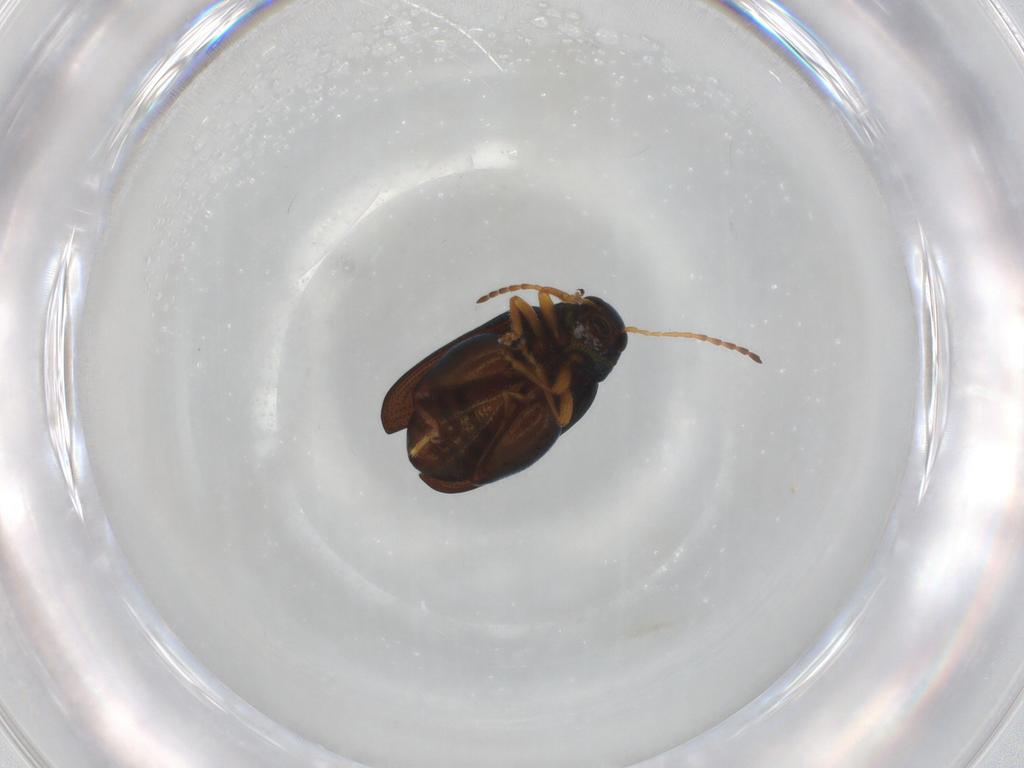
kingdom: Animalia
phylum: Arthropoda
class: Insecta
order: Coleoptera
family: Chrysomelidae
